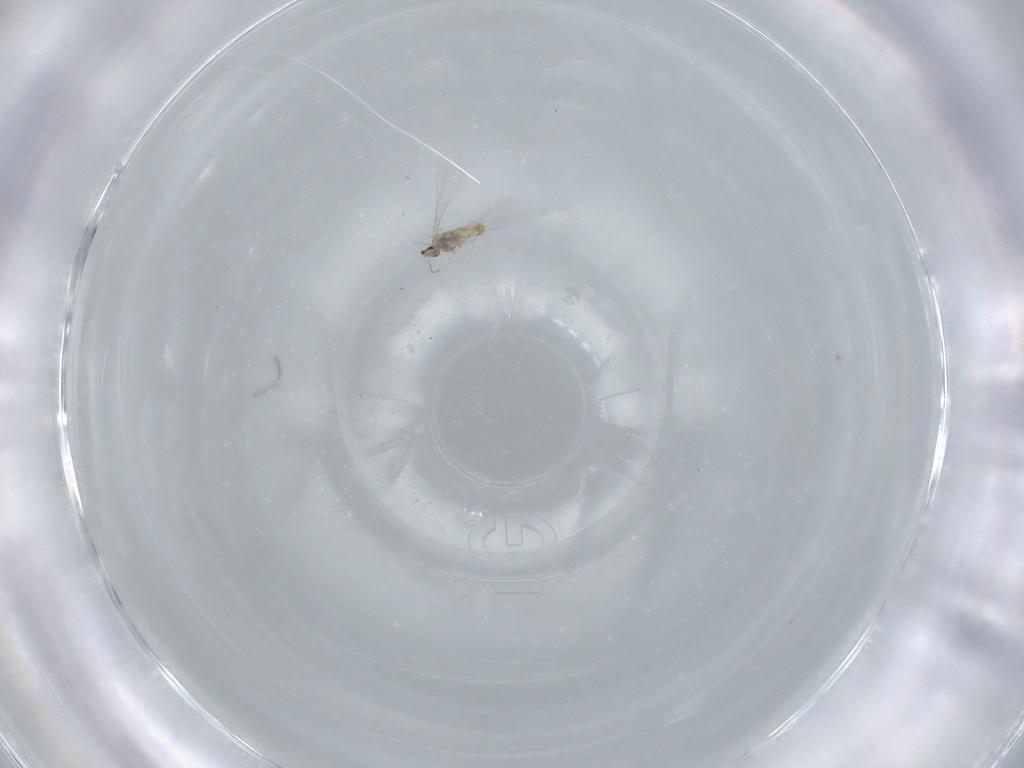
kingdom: Animalia
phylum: Arthropoda
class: Insecta
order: Diptera
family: Cecidomyiidae
